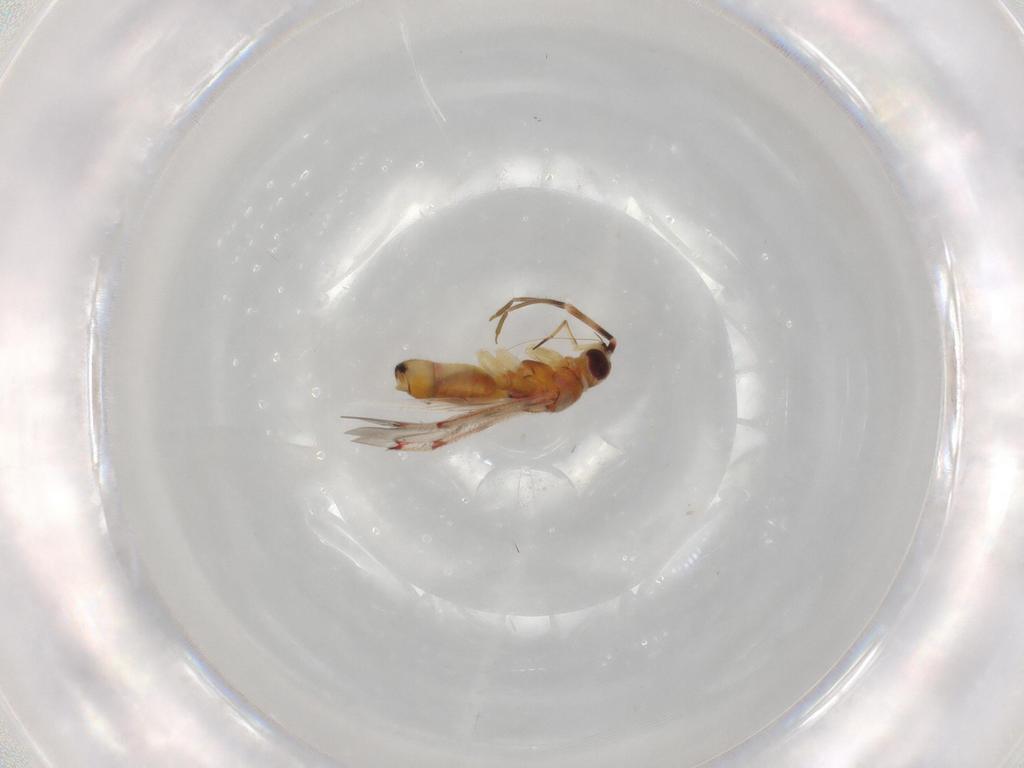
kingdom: Animalia
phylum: Arthropoda
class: Insecta
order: Hemiptera
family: Miridae
